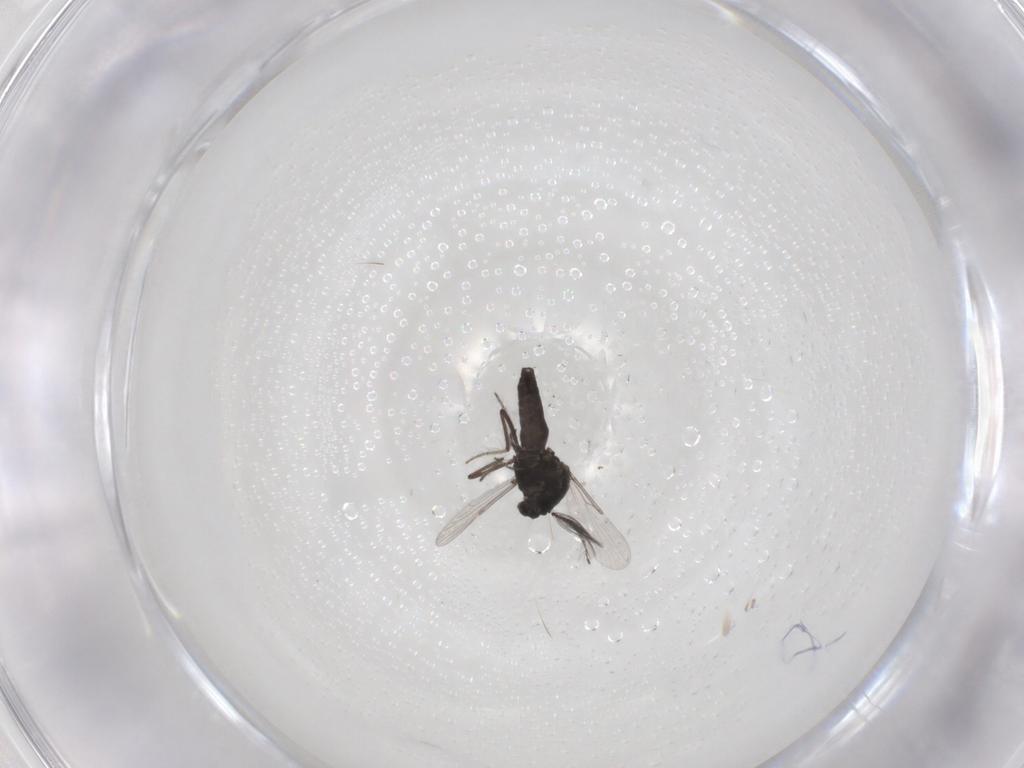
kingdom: Animalia
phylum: Arthropoda
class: Insecta
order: Diptera
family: Ceratopogonidae
